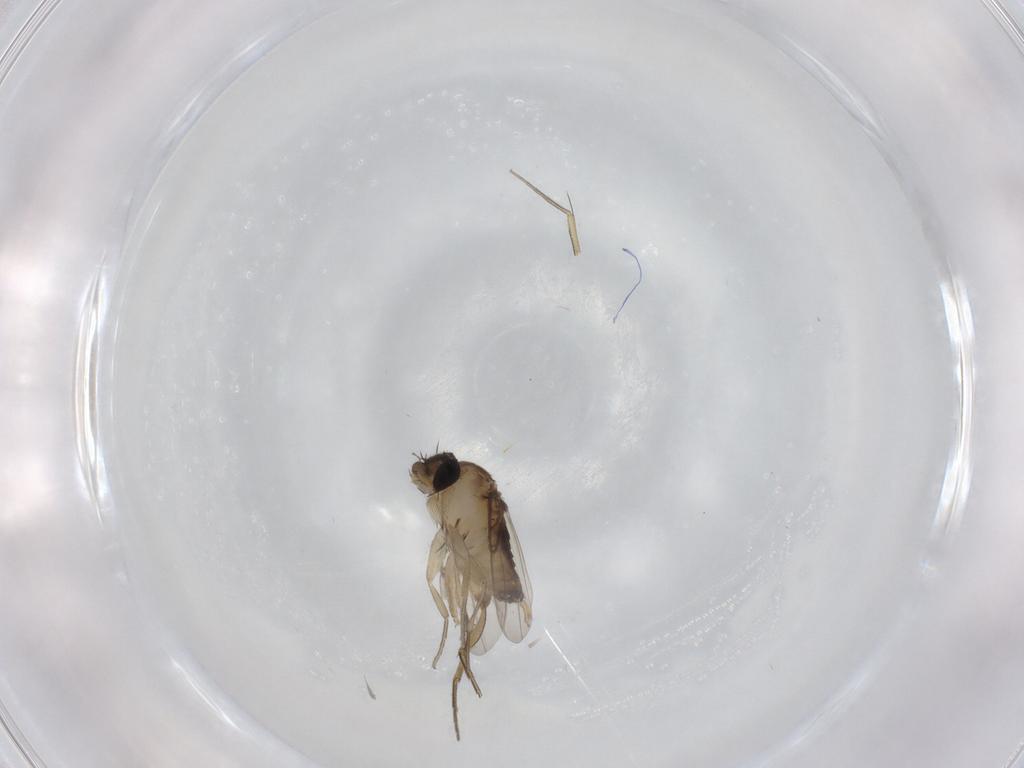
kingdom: Animalia
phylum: Arthropoda
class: Insecta
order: Diptera
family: Phoridae
